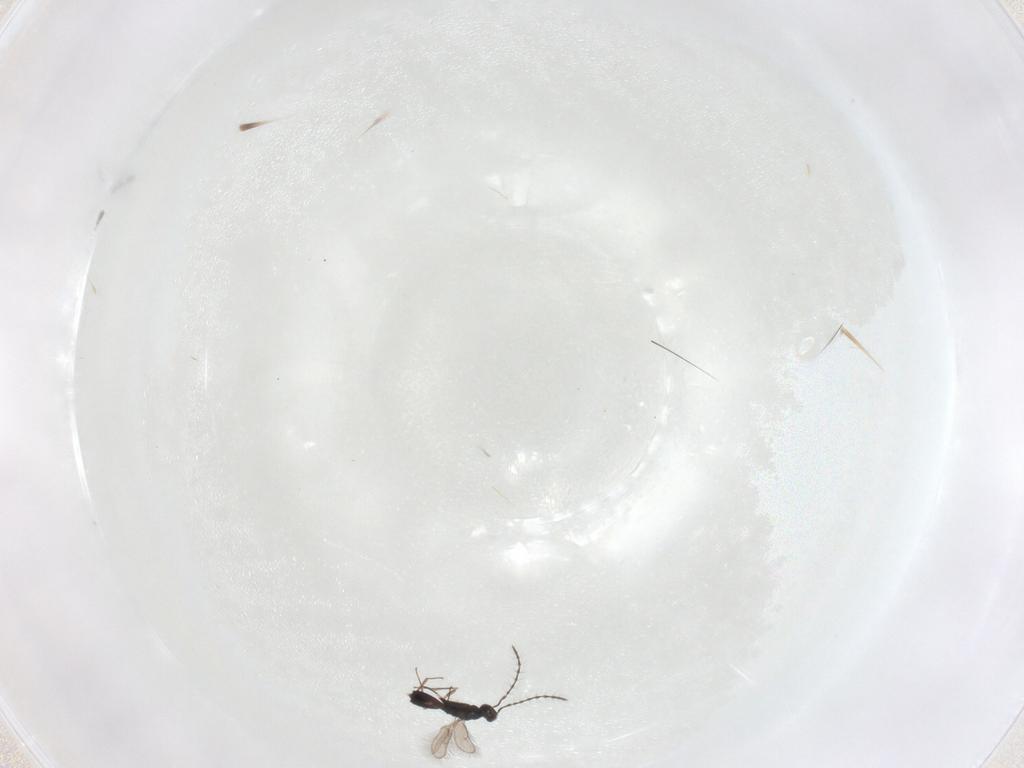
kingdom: Animalia
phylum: Arthropoda
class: Insecta
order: Hymenoptera
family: Pteromalidae
